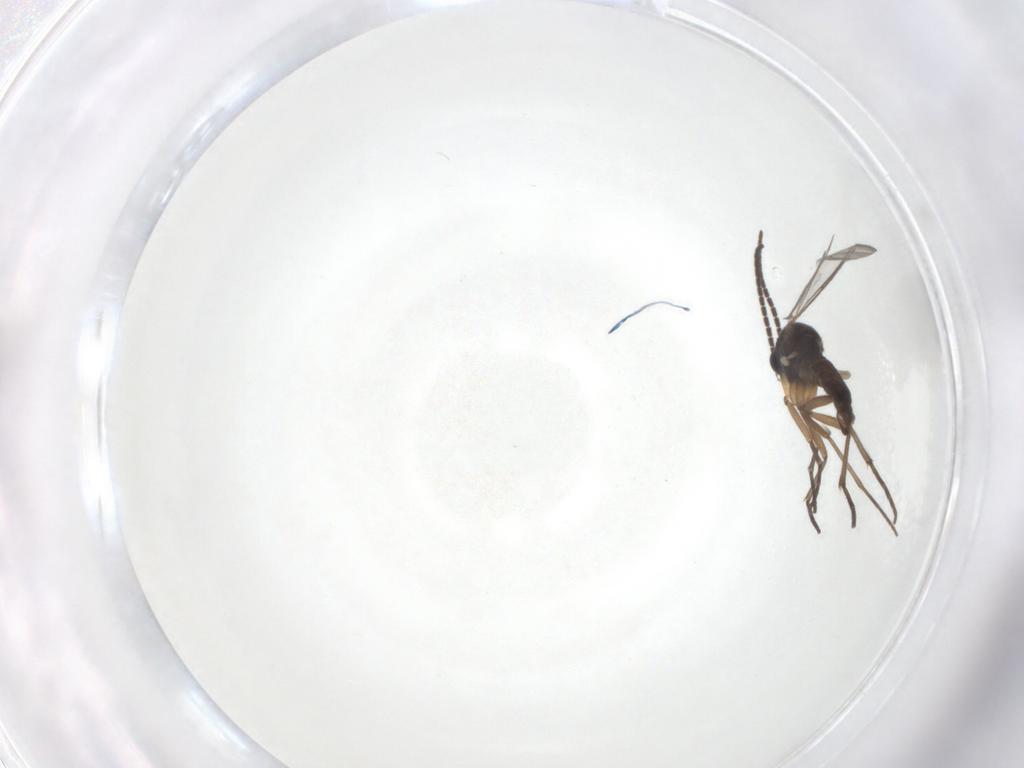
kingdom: Animalia
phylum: Arthropoda
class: Insecta
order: Diptera
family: Sciaridae
